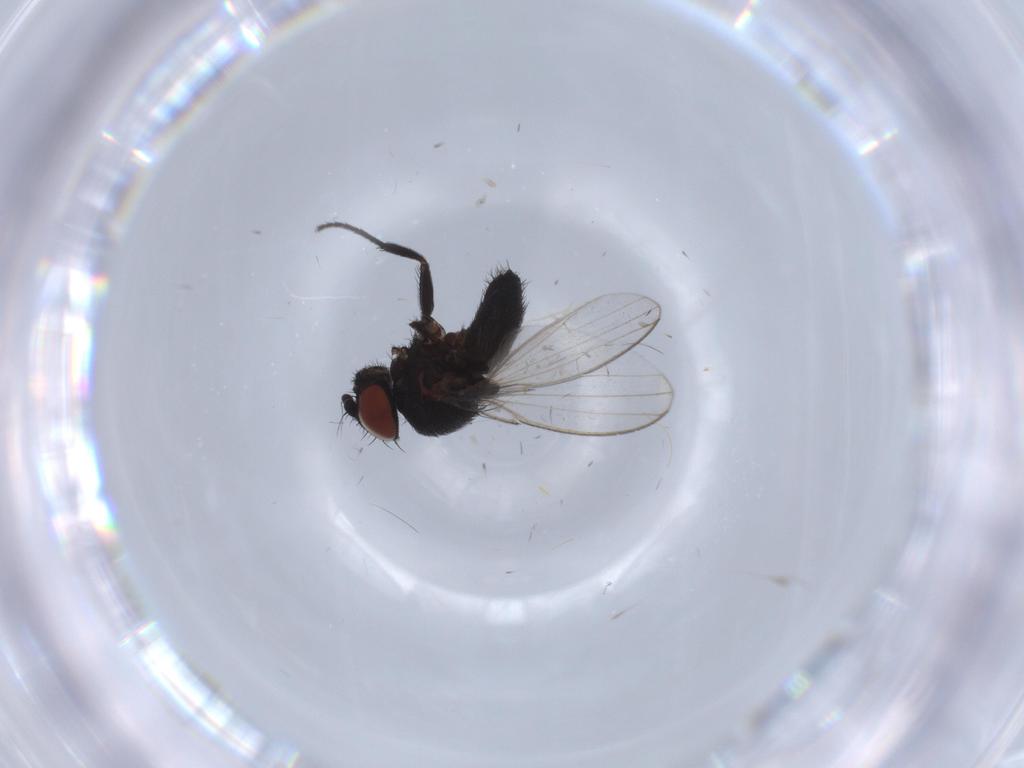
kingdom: Animalia
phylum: Arthropoda
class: Insecta
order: Diptera
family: Milichiidae
